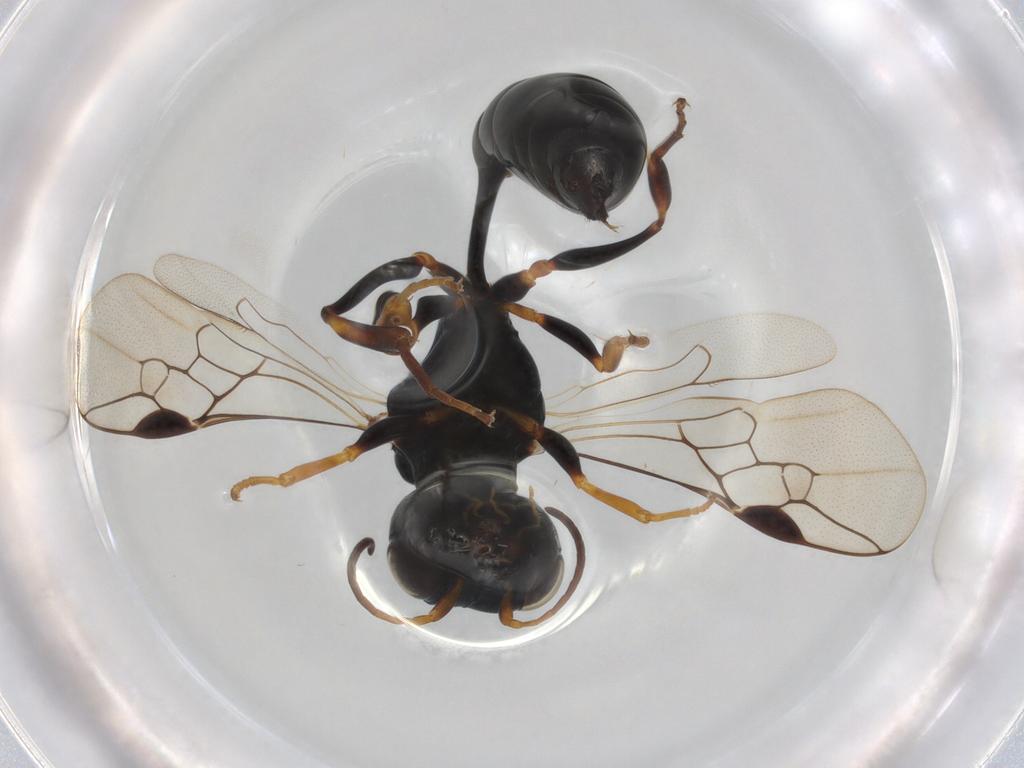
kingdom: Animalia
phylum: Arthropoda
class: Insecta
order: Hymenoptera
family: Pemphredonidae
